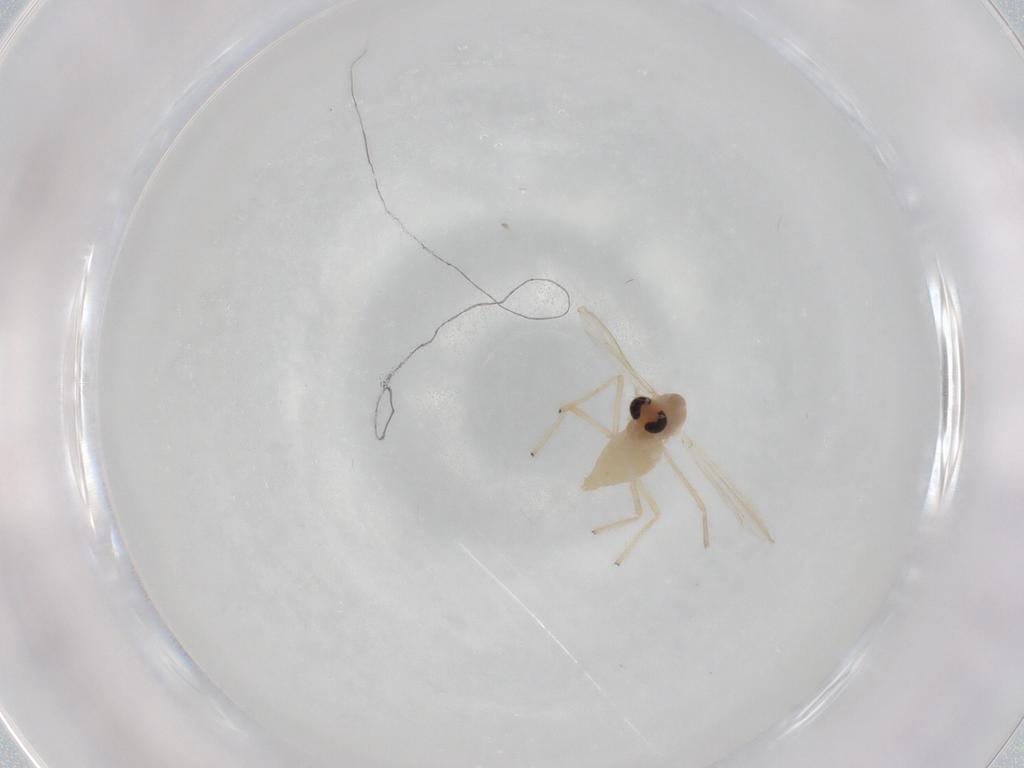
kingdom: Animalia
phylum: Arthropoda
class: Insecta
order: Diptera
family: Chironomidae
